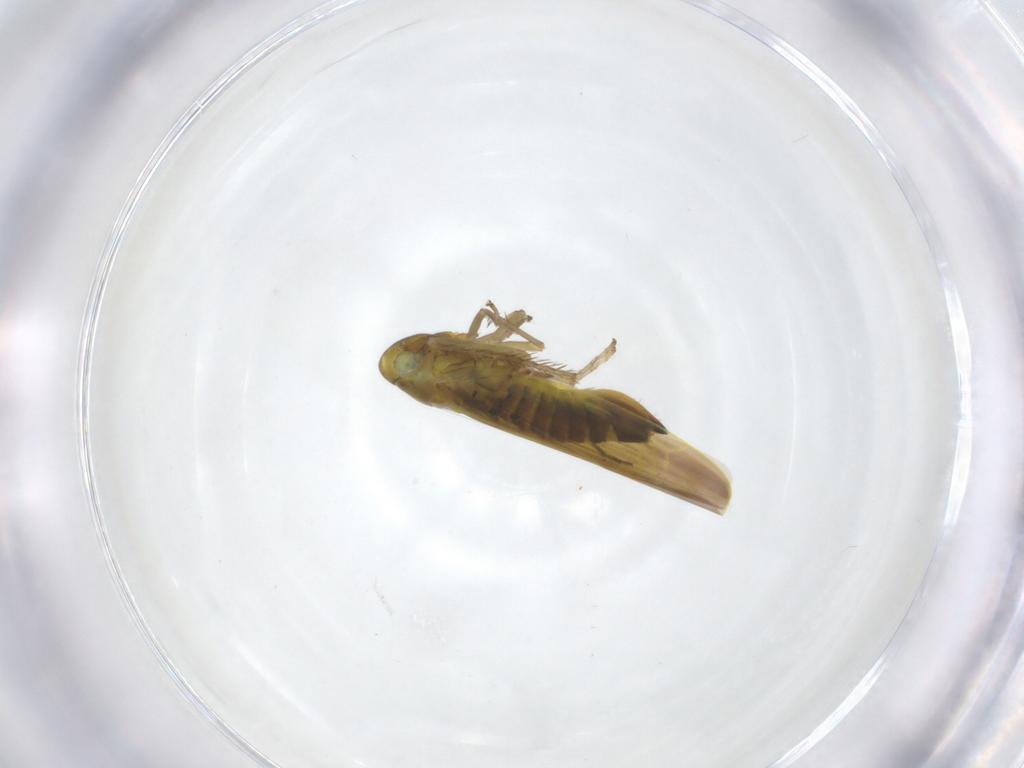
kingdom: Animalia
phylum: Arthropoda
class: Insecta
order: Hemiptera
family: Cicadellidae
